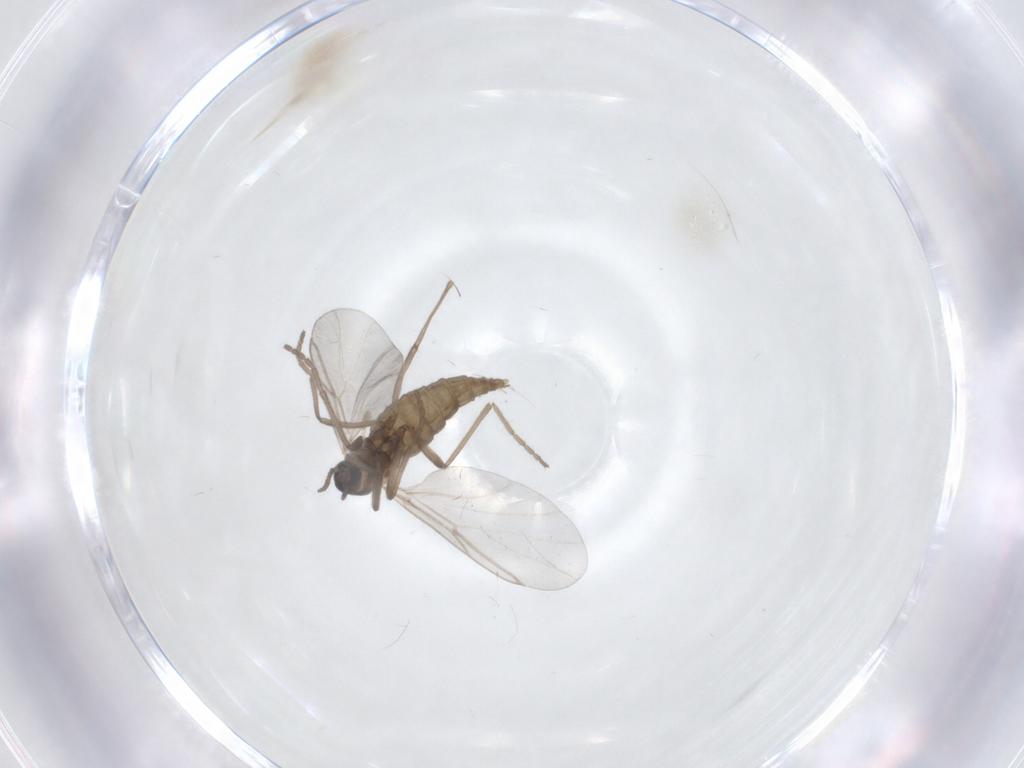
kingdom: Animalia
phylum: Arthropoda
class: Insecta
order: Diptera
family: Cecidomyiidae
